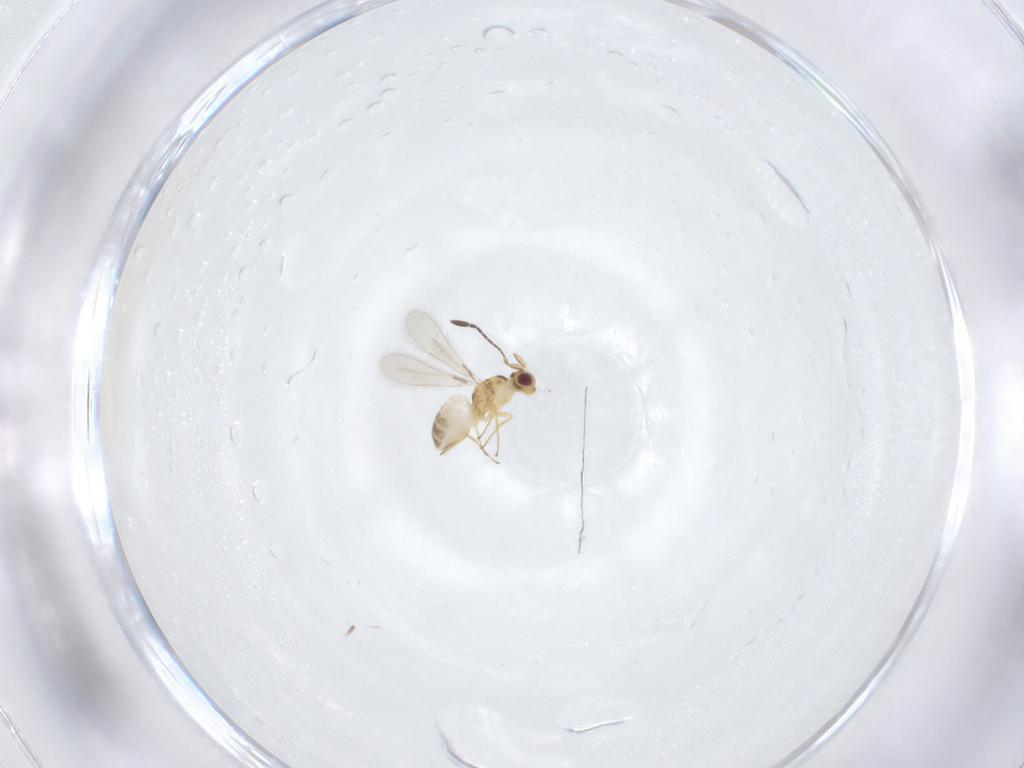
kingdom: Animalia
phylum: Arthropoda
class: Insecta
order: Hymenoptera
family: Mymaridae
